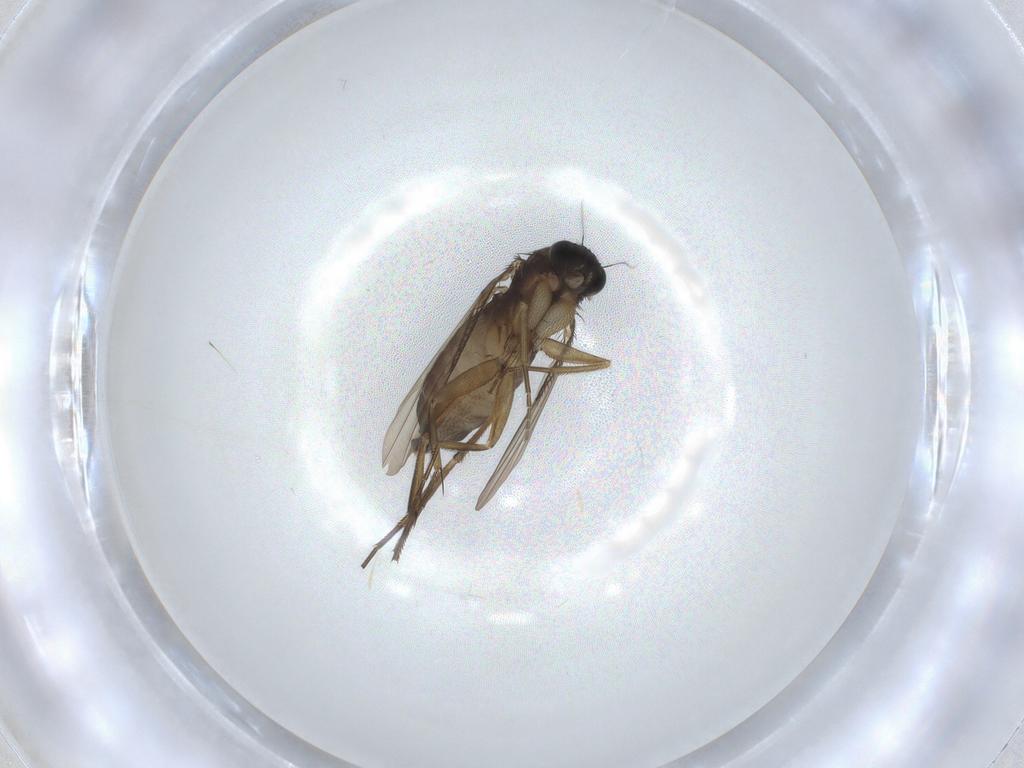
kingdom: Animalia
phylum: Arthropoda
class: Insecta
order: Diptera
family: Phoridae
